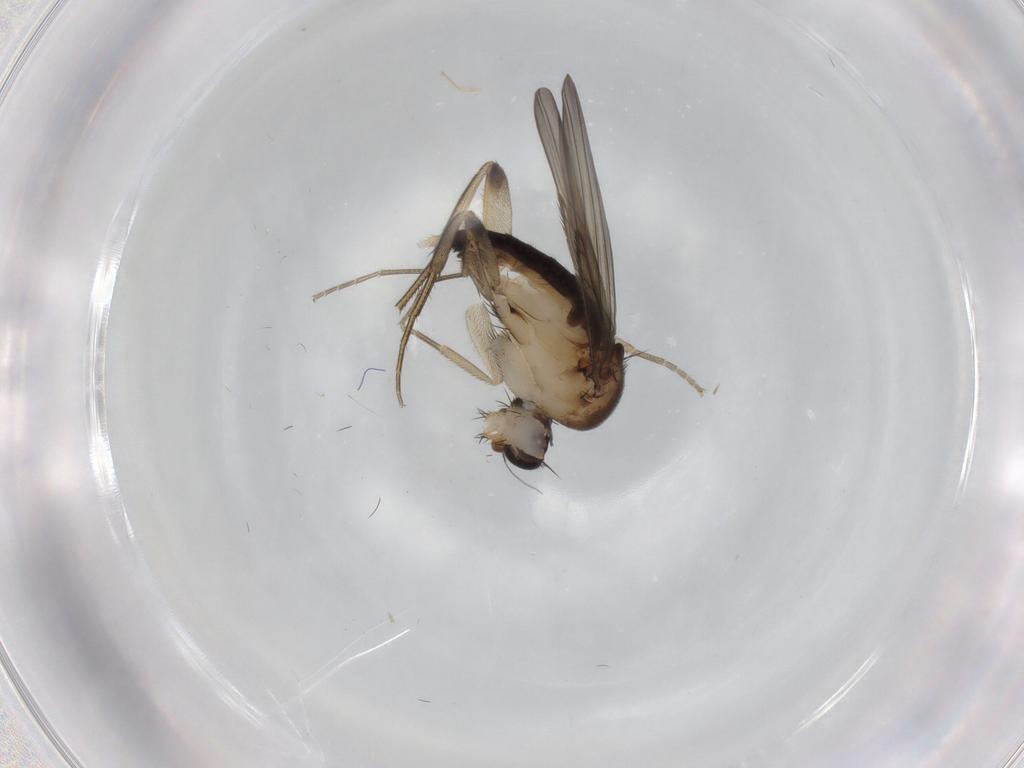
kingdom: Animalia
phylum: Arthropoda
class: Insecta
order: Diptera
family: Phoridae
